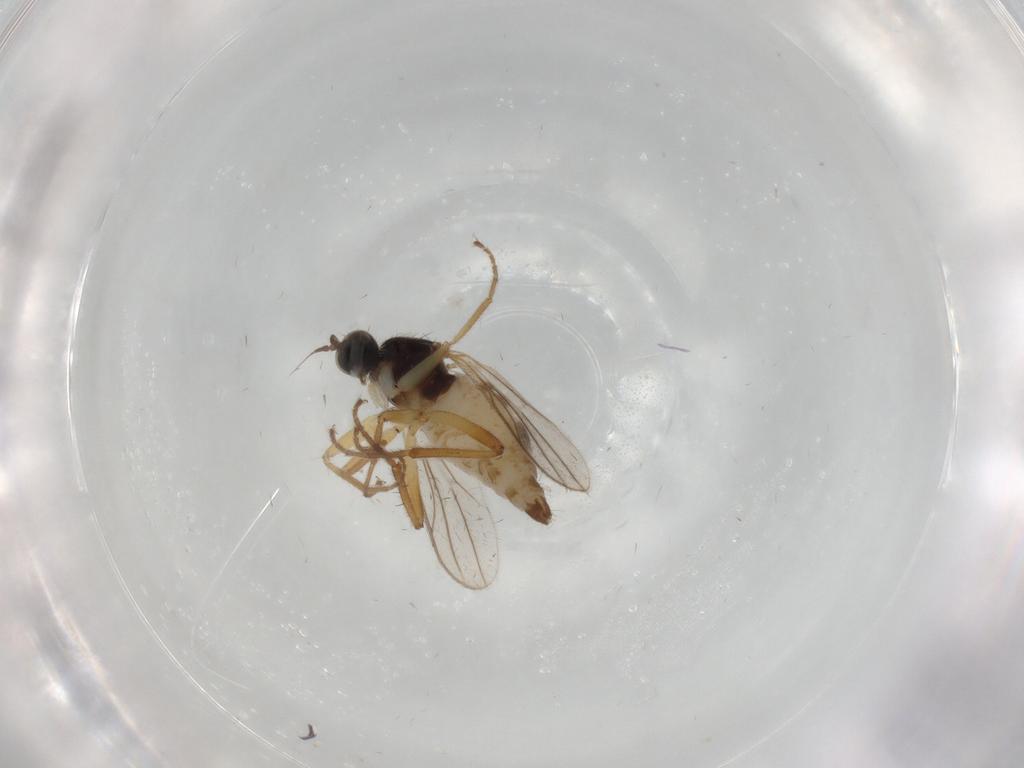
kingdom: Animalia
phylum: Arthropoda
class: Insecta
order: Diptera
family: Hybotidae
